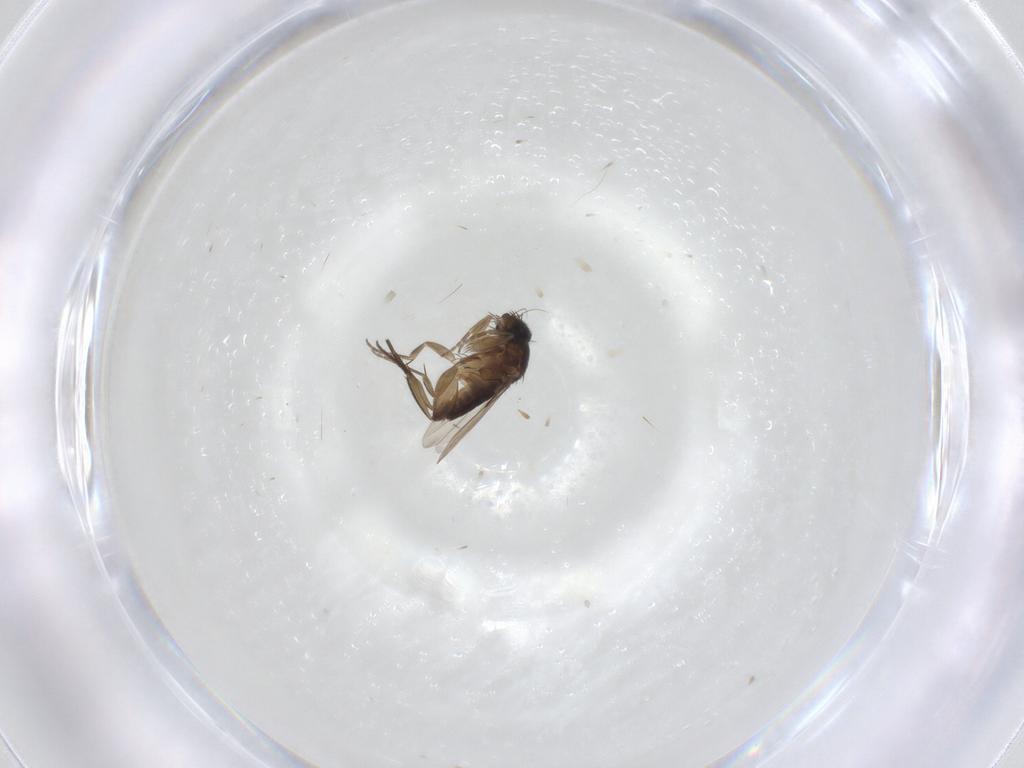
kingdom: Animalia
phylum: Arthropoda
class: Insecta
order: Diptera
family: Phoridae
